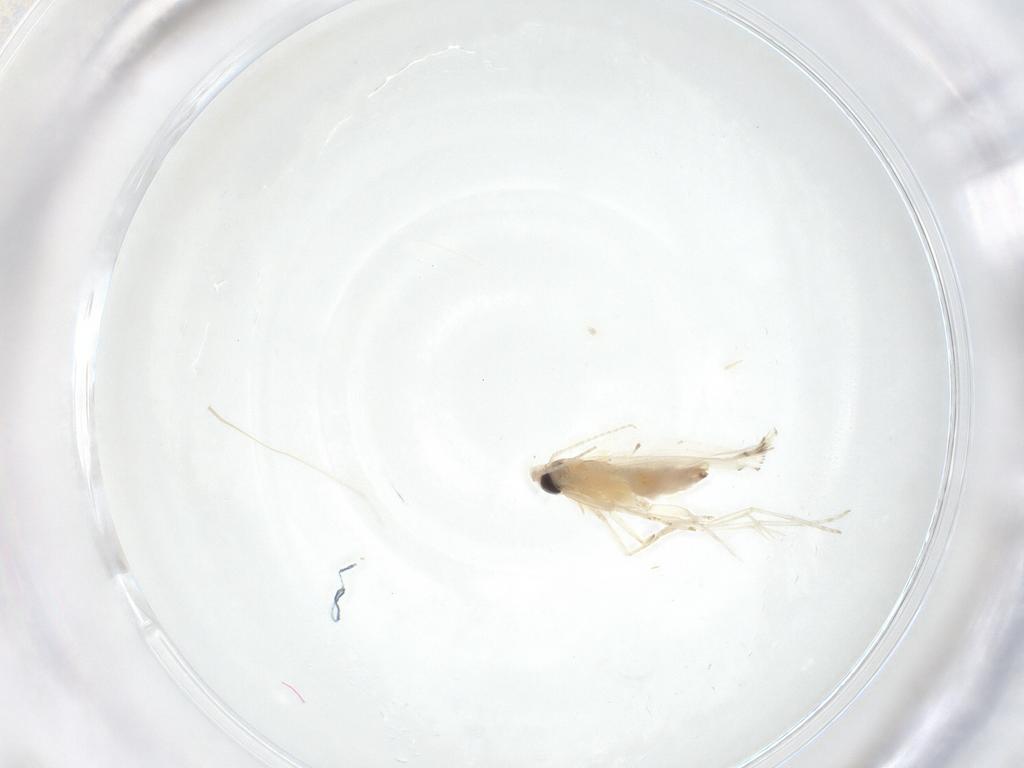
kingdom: Animalia
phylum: Arthropoda
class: Insecta
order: Lepidoptera
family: Gracillariidae
